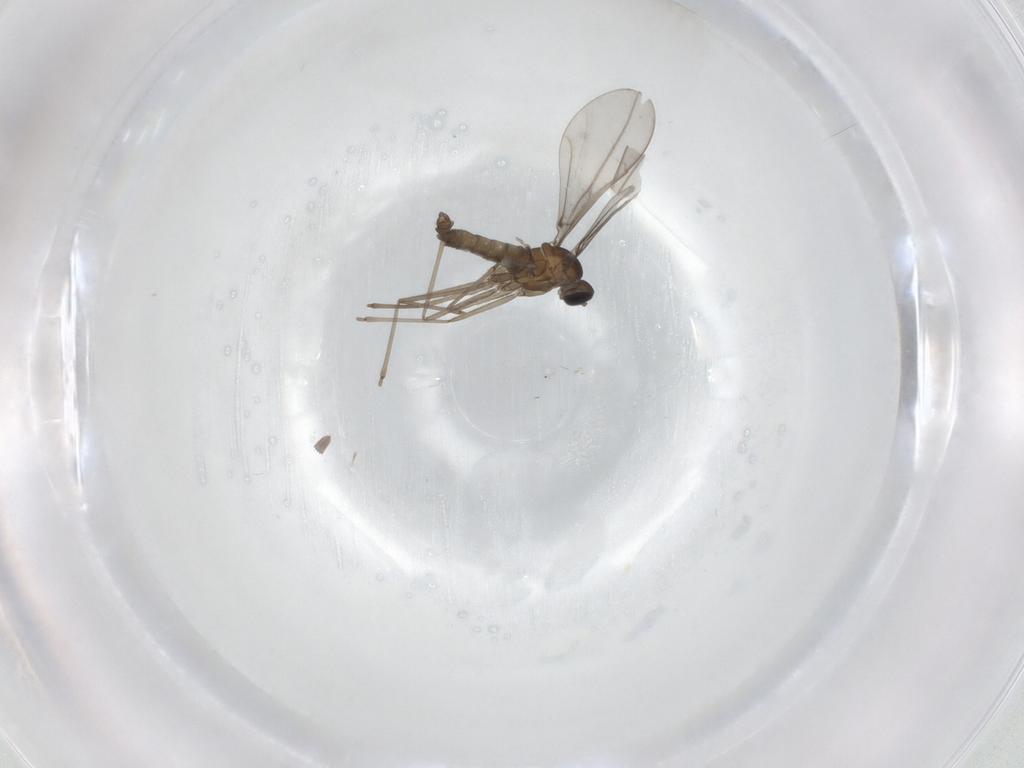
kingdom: Animalia
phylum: Arthropoda
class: Insecta
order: Diptera
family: Cecidomyiidae
